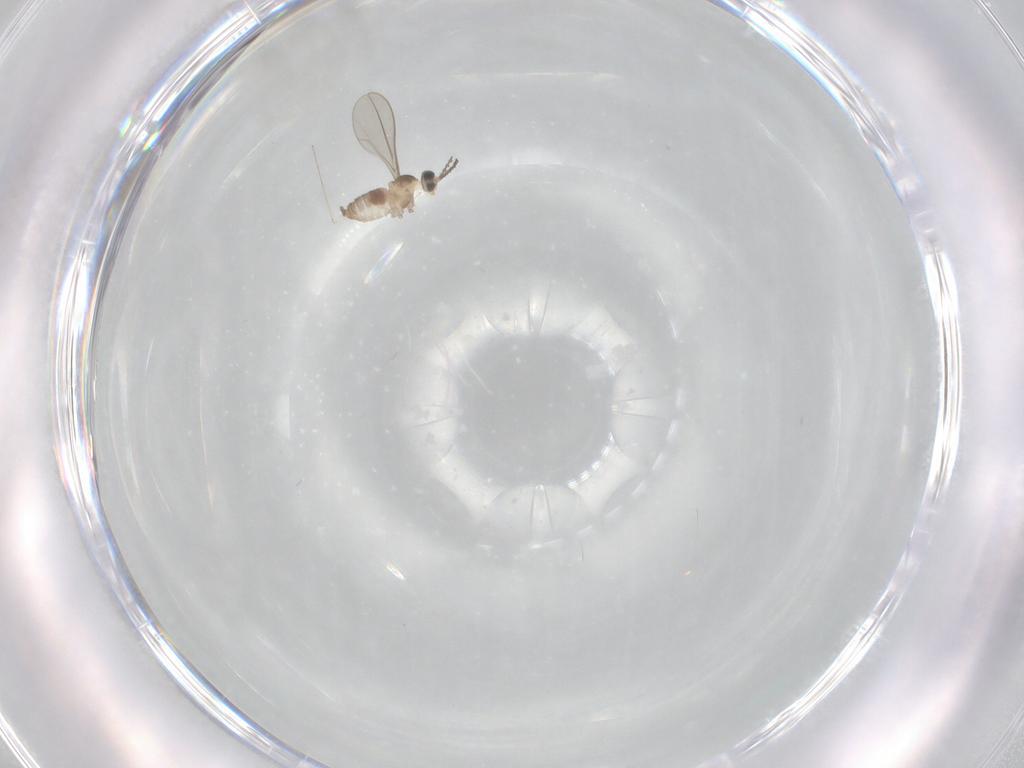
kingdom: Animalia
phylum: Arthropoda
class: Insecta
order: Diptera
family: Cecidomyiidae
